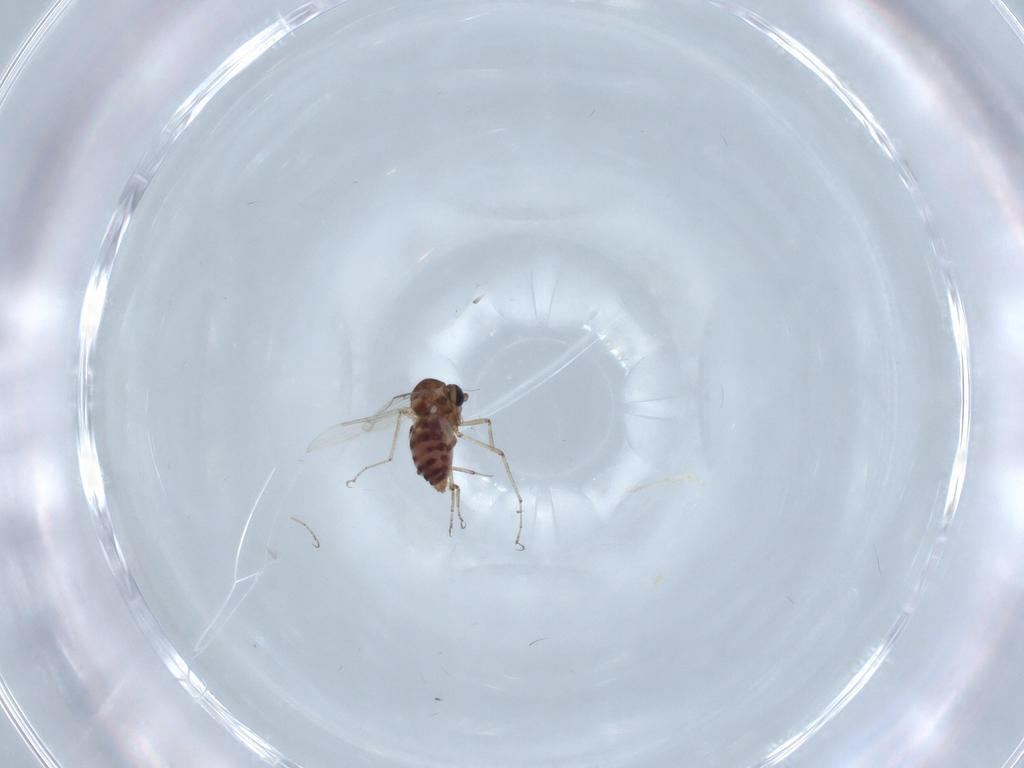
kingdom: Animalia
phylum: Arthropoda
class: Insecta
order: Diptera
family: Ceratopogonidae
